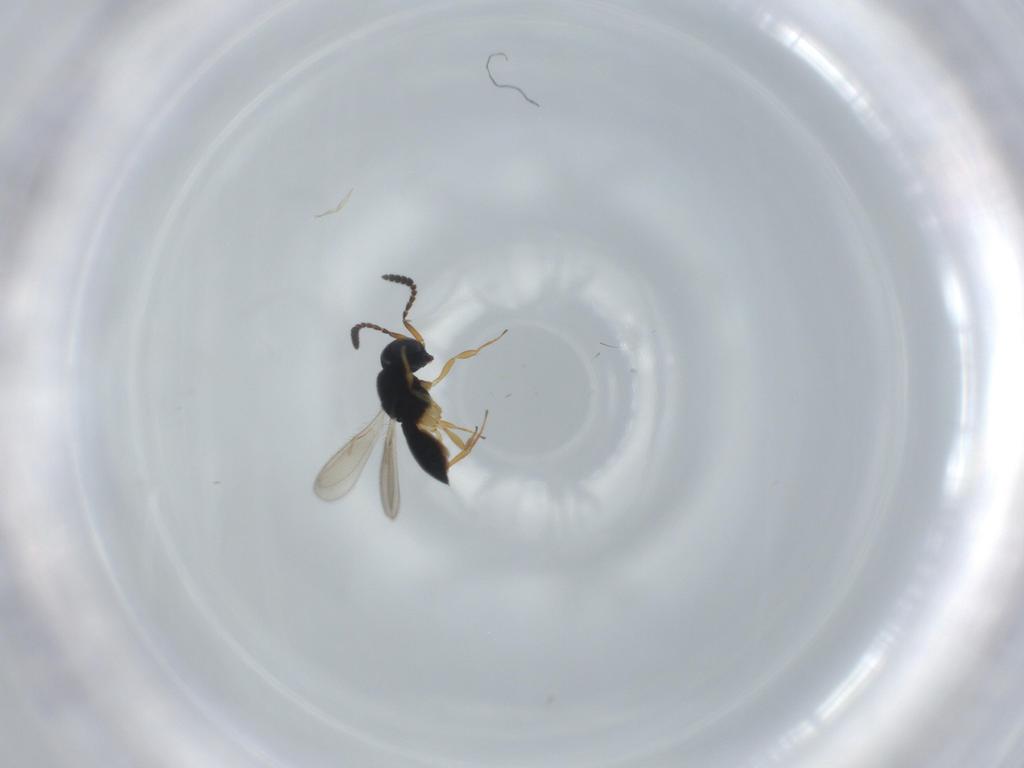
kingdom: Animalia
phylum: Arthropoda
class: Insecta
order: Hymenoptera
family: Scelionidae
